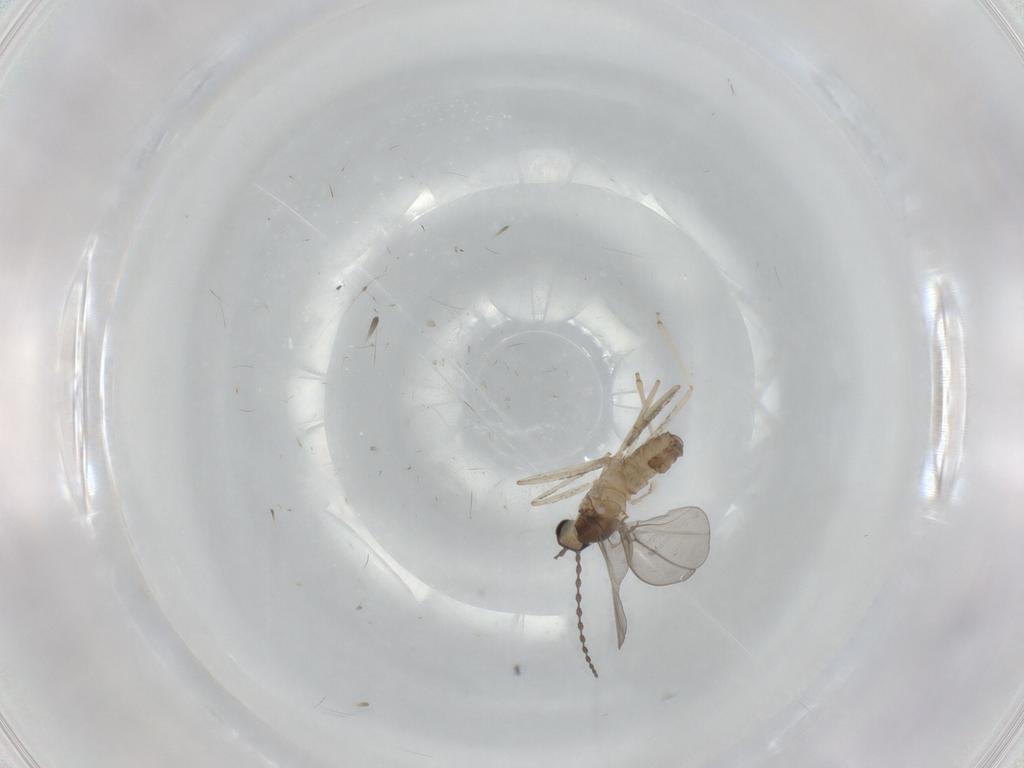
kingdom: Animalia
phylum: Arthropoda
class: Insecta
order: Diptera
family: Cecidomyiidae
